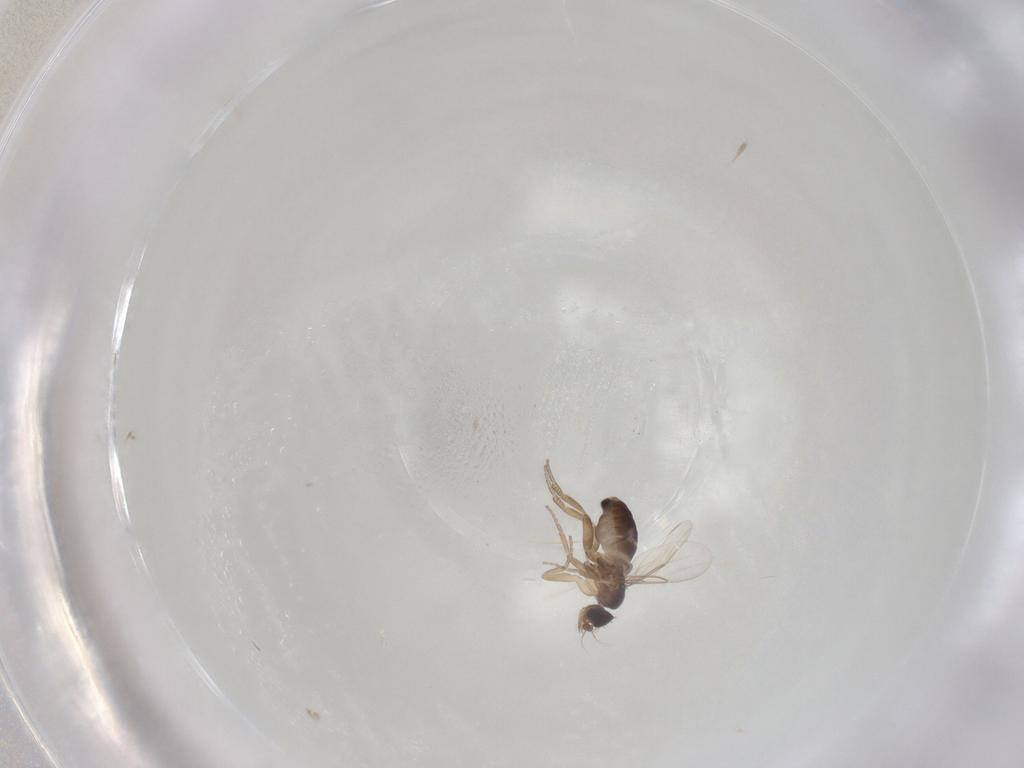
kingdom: Animalia
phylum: Arthropoda
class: Insecta
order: Diptera
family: Phoridae
